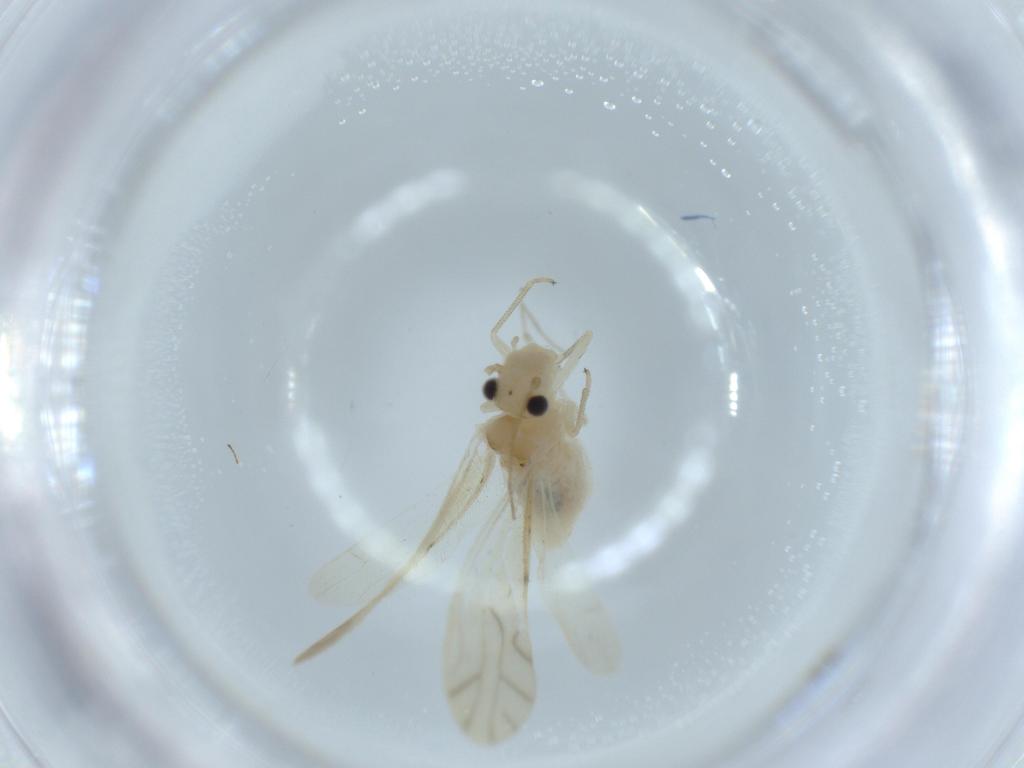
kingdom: Animalia
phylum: Arthropoda
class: Insecta
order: Psocodea
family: Caeciliusidae
